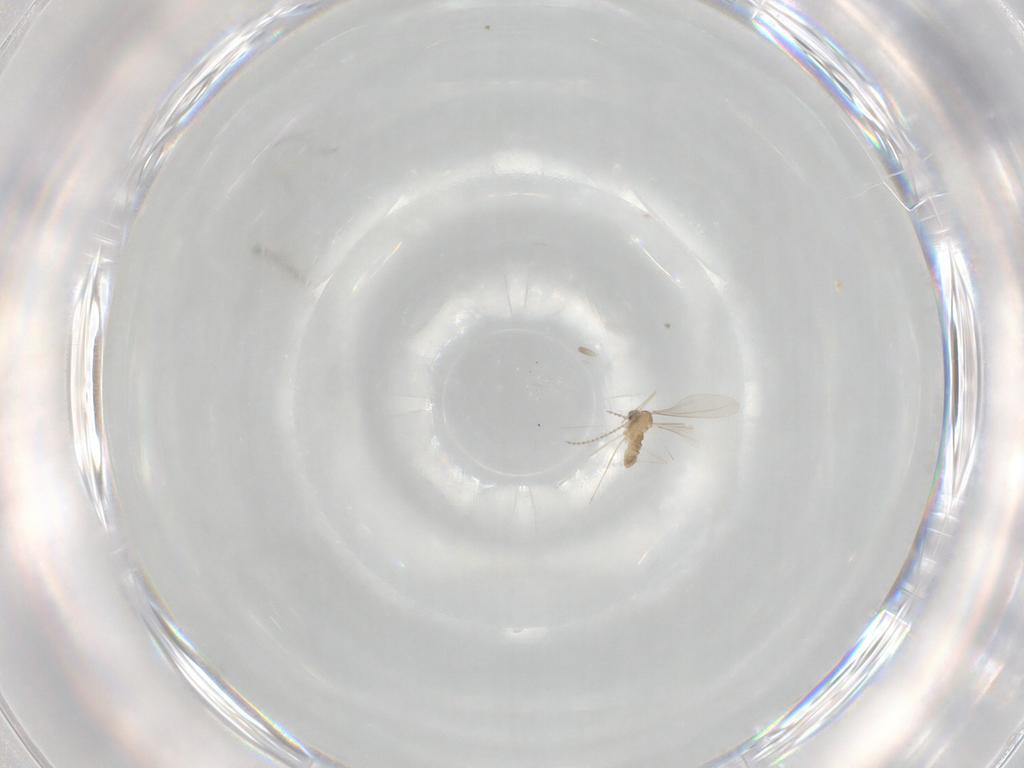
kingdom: Animalia
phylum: Arthropoda
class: Insecta
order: Diptera
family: Cecidomyiidae
